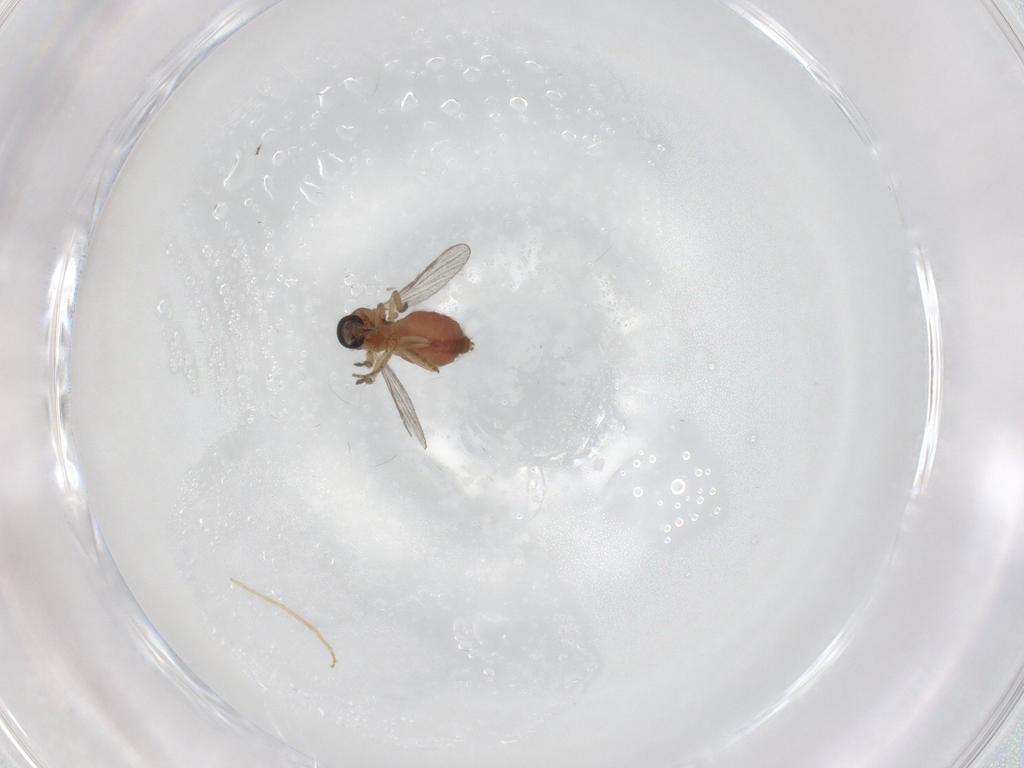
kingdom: Animalia
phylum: Arthropoda
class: Insecta
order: Diptera
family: Chironomidae
